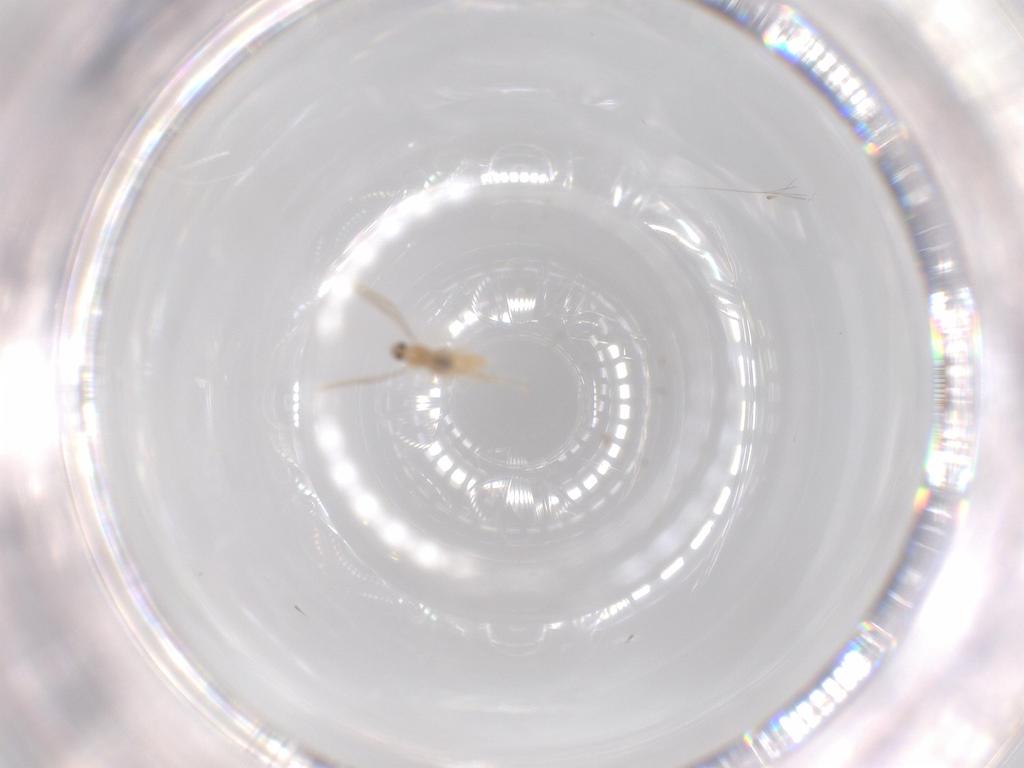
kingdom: Animalia
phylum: Arthropoda
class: Insecta
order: Diptera
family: Cecidomyiidae
